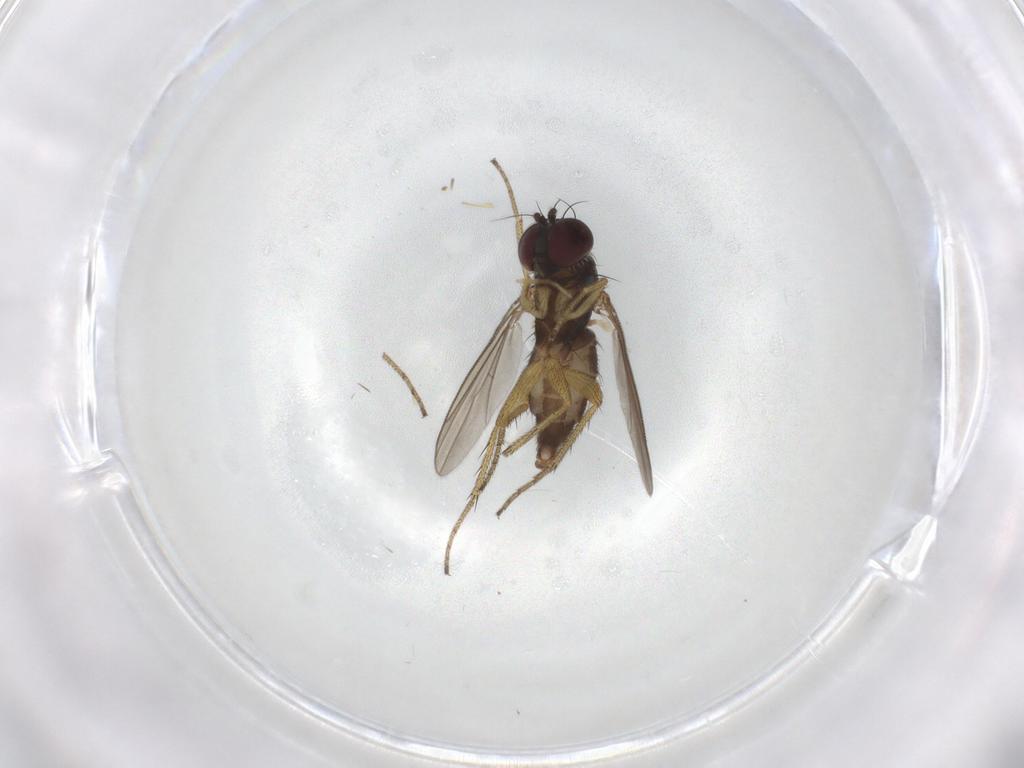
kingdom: Animalia
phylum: Arthropoda
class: Insecta
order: Diptera
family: Dolichopodidae
